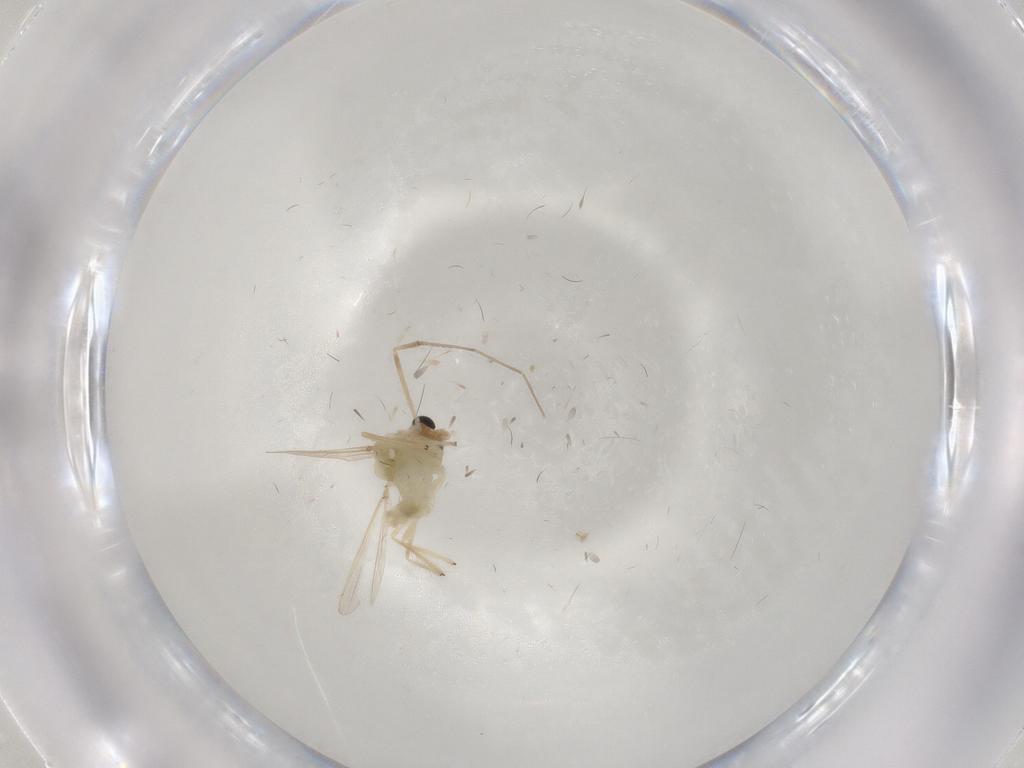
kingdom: Animalia
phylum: Arthropoda
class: Insecta
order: Diptera
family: Chironomidae
